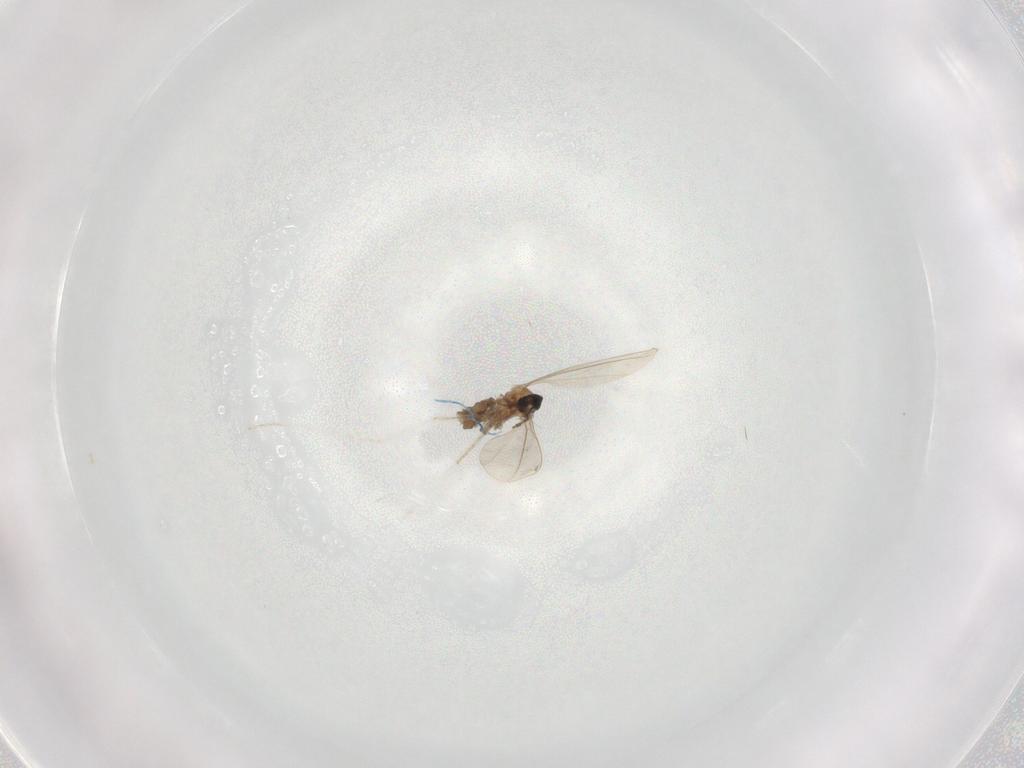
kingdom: Animalia
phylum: Arthropoda
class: Insecta
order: Diptera
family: Cecidomyiidae
